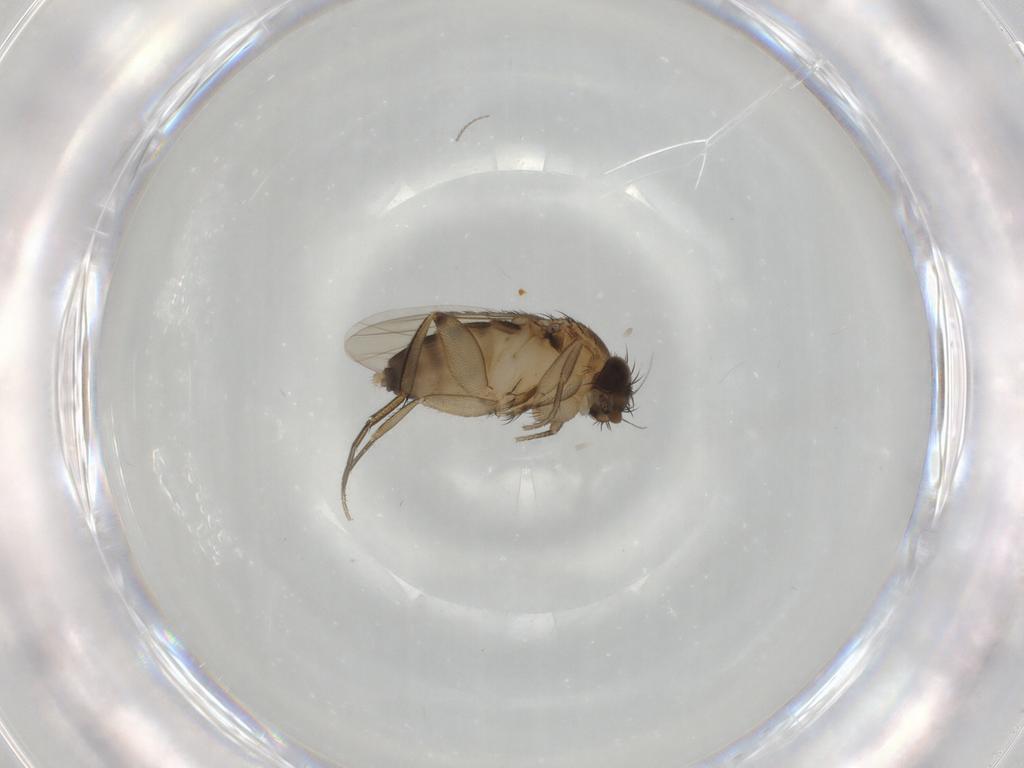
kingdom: Animalia
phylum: Arthropoda
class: Insecta
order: Diptera
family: Phoridae
